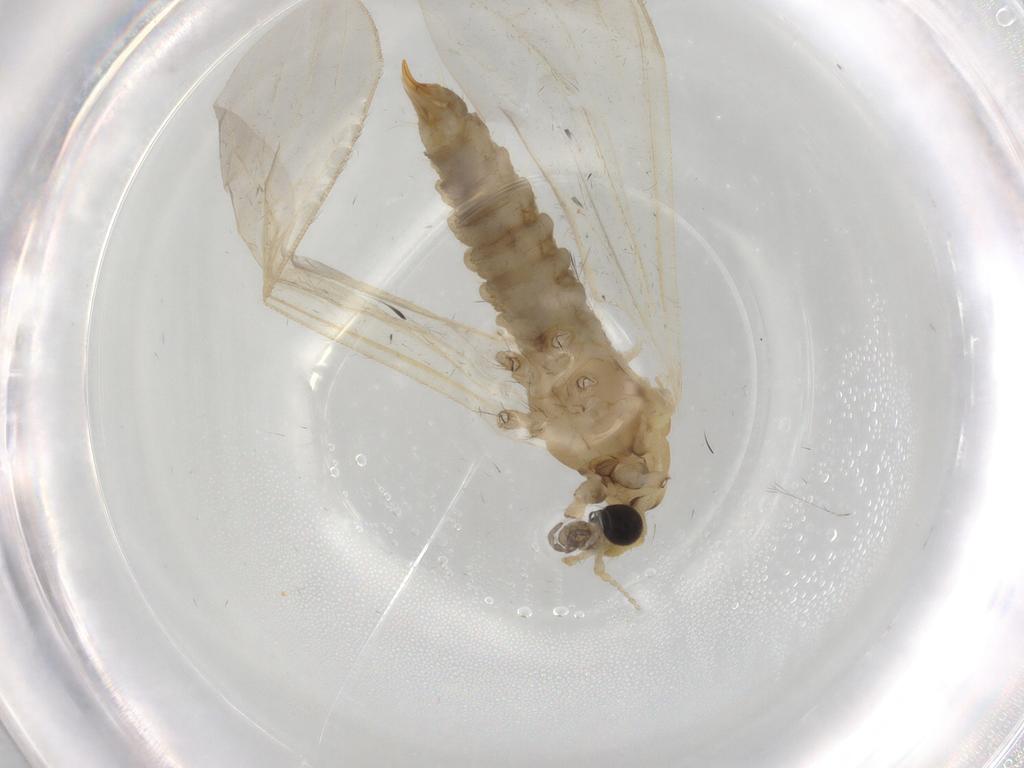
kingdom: Animalia
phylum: Arthropoda
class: Insecta
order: Diptera
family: Limoniidae
